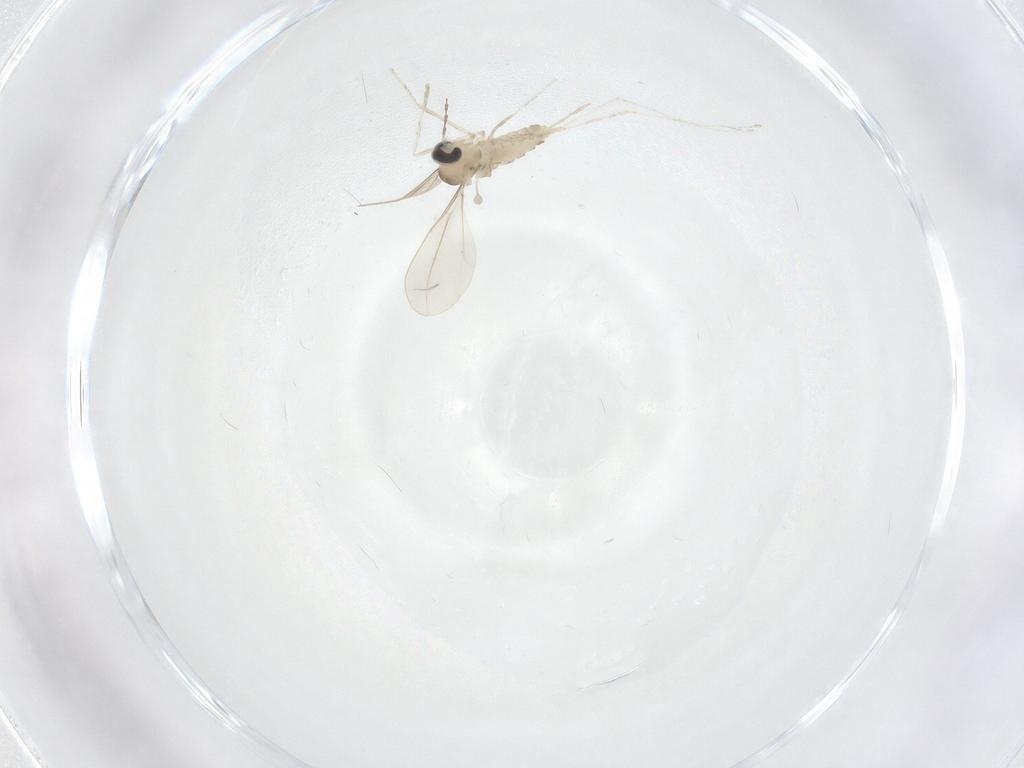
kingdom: Animalia
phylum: Arthropoda
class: Insecta
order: Diptera
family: Cecidomyiidae
